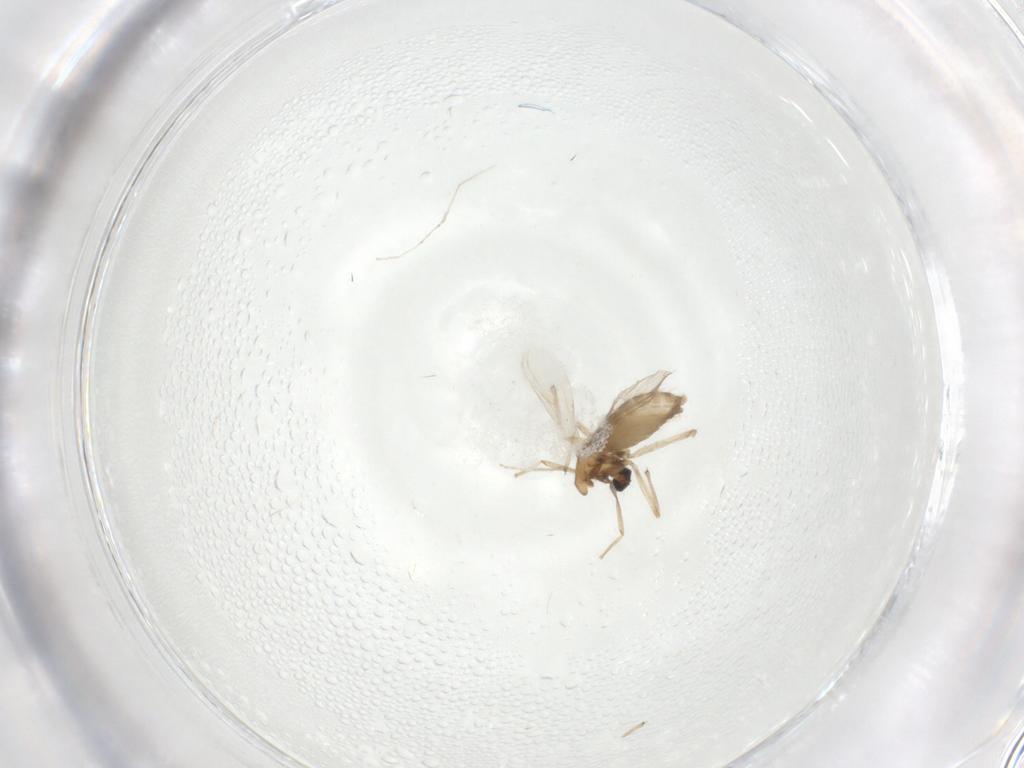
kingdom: Animalia
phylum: Arthropoda
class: Insecta
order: Diptera
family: Chironomidae
